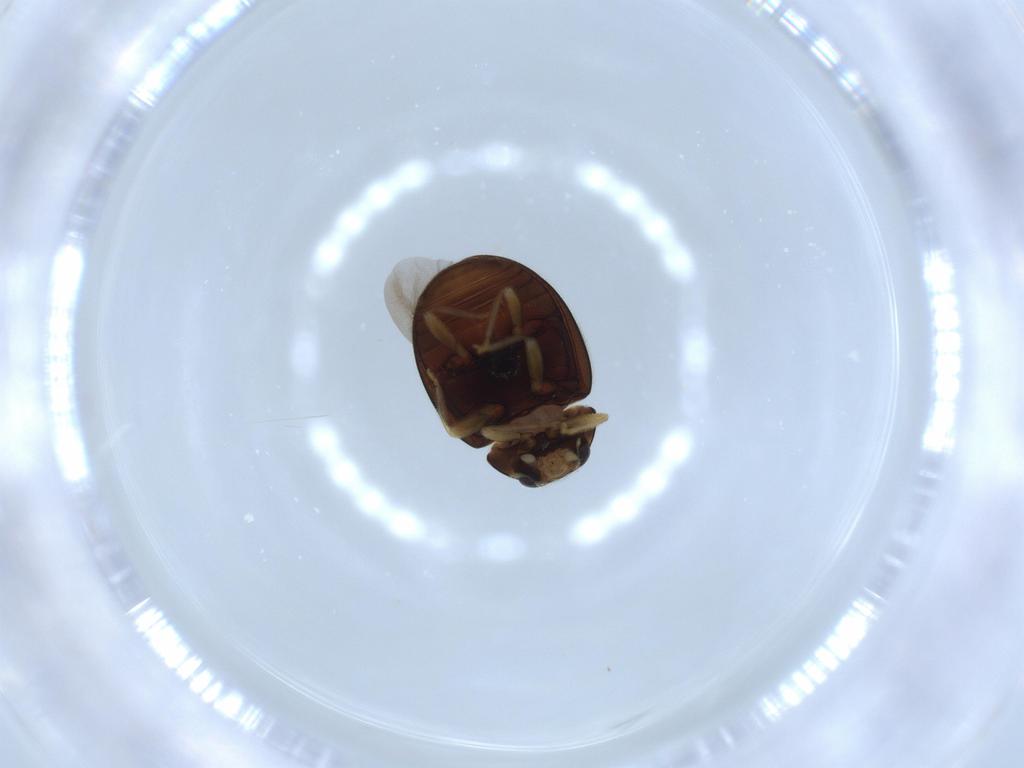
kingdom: Animalia
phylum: Arthropoda
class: Insecta
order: Coleoptera
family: Coccinellidae
